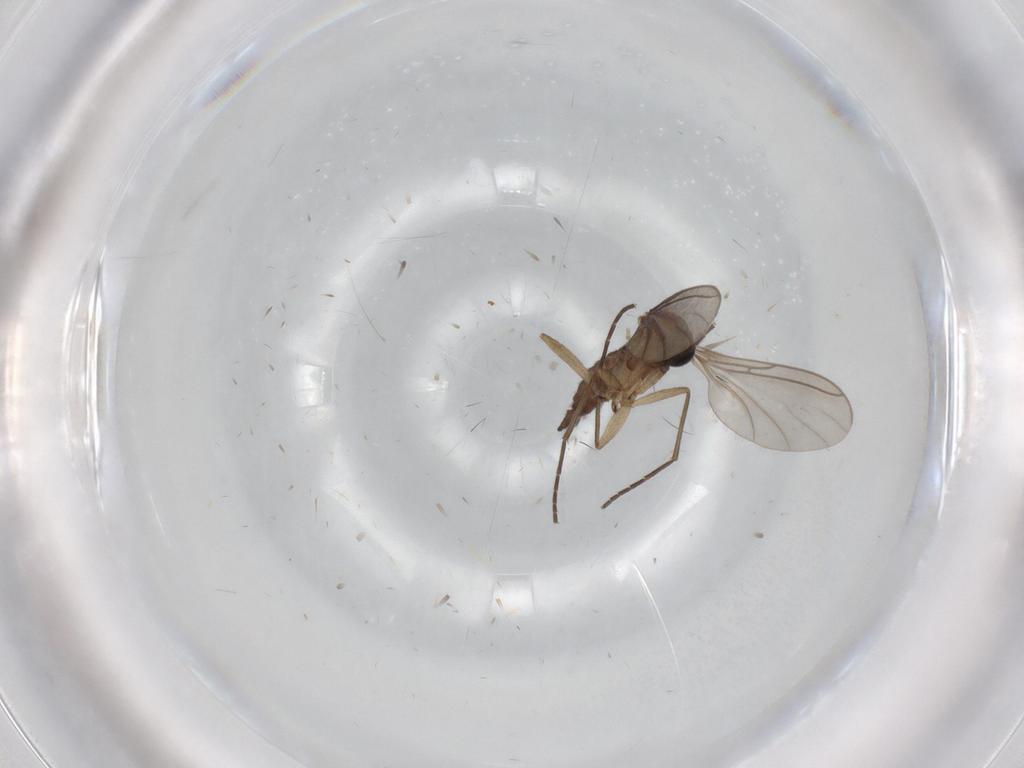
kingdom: Animalia
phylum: Arthropoda
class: Insecta
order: Diptera
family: Sciaridae
